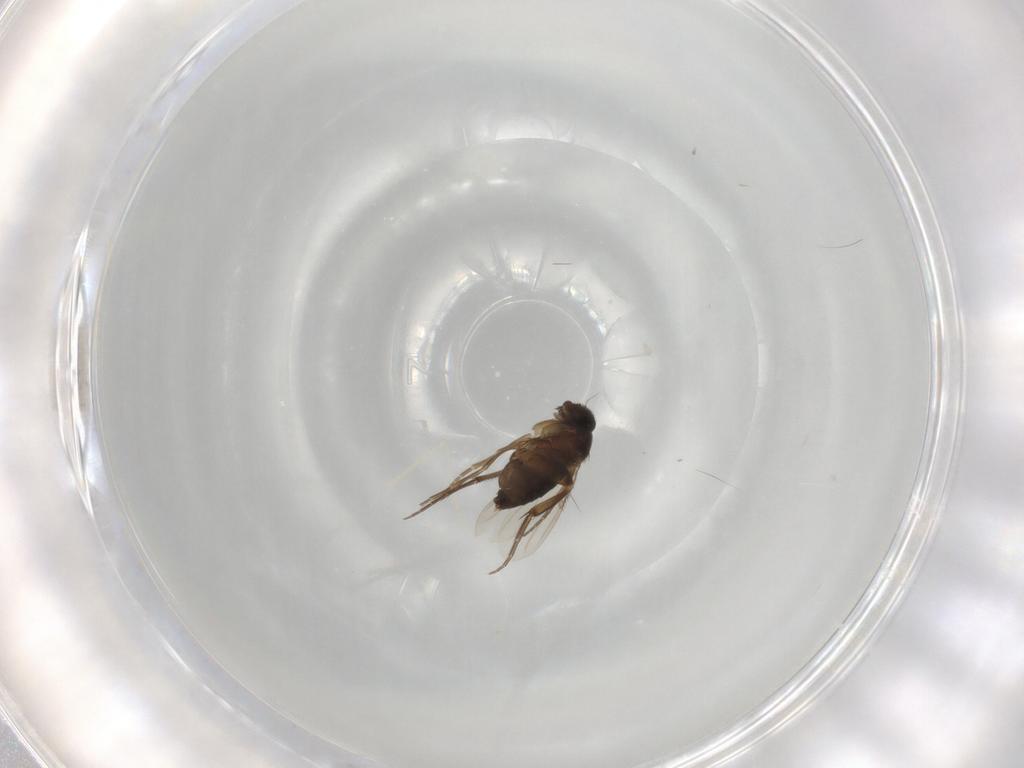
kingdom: Animalia
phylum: Arthropoda
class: Insecta
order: Diptera
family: Cecidomyiidae
